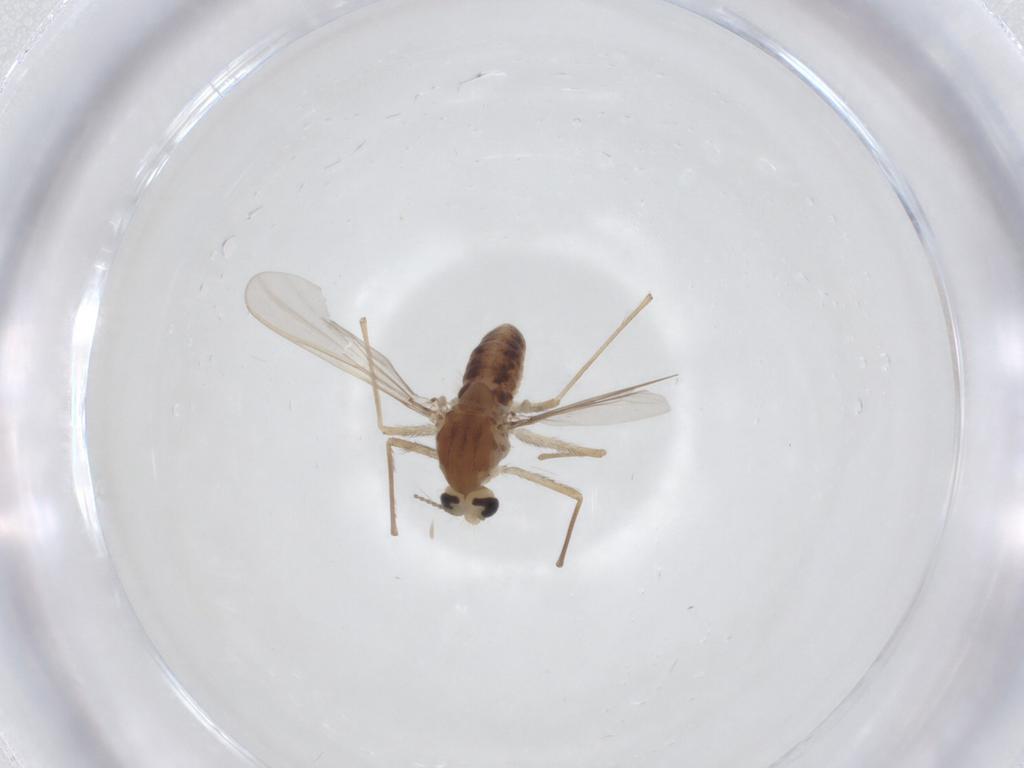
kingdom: Animalia
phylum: Arthropoda
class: Insecta
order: Diptera
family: Chironomidae
